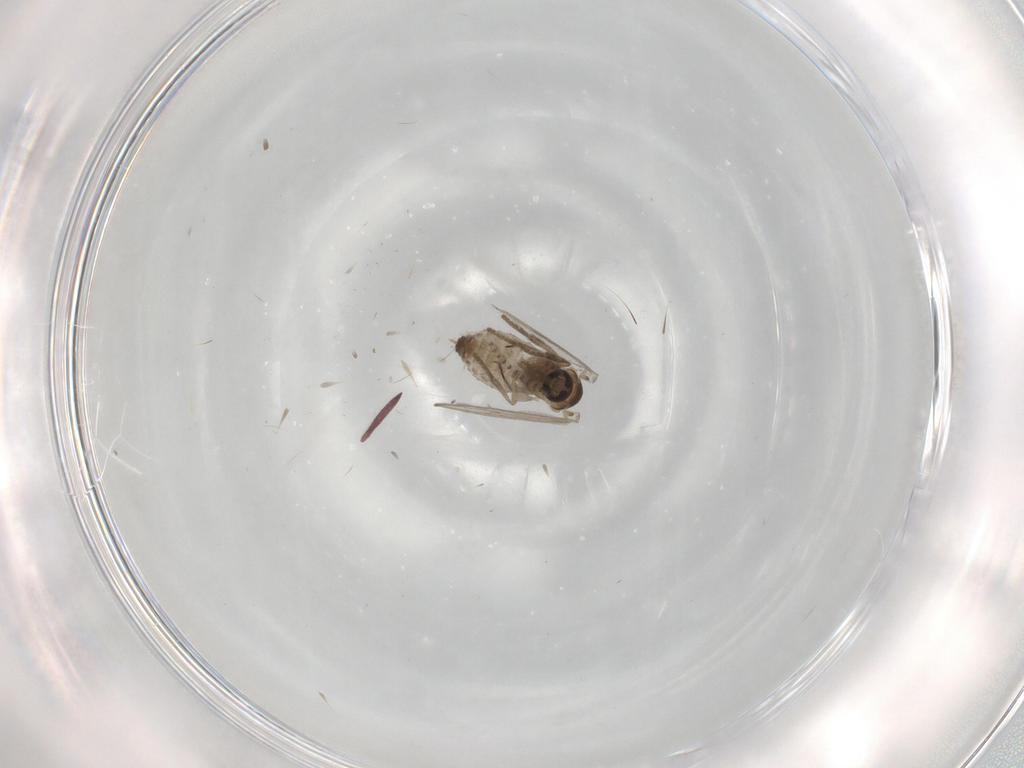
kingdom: Animalia
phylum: Arthropoda
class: Insecta
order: Diptera
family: Psychodidae
